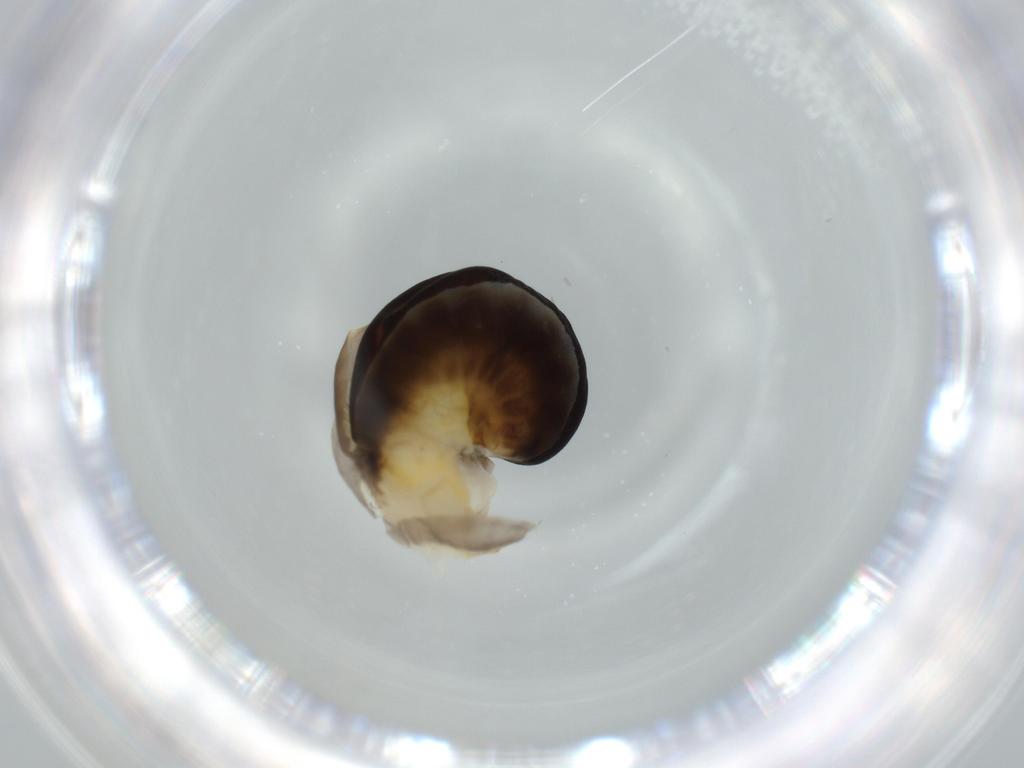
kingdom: Animalia
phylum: Arthropoda
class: Insecta
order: Hymenoptera
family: Dryinidae
